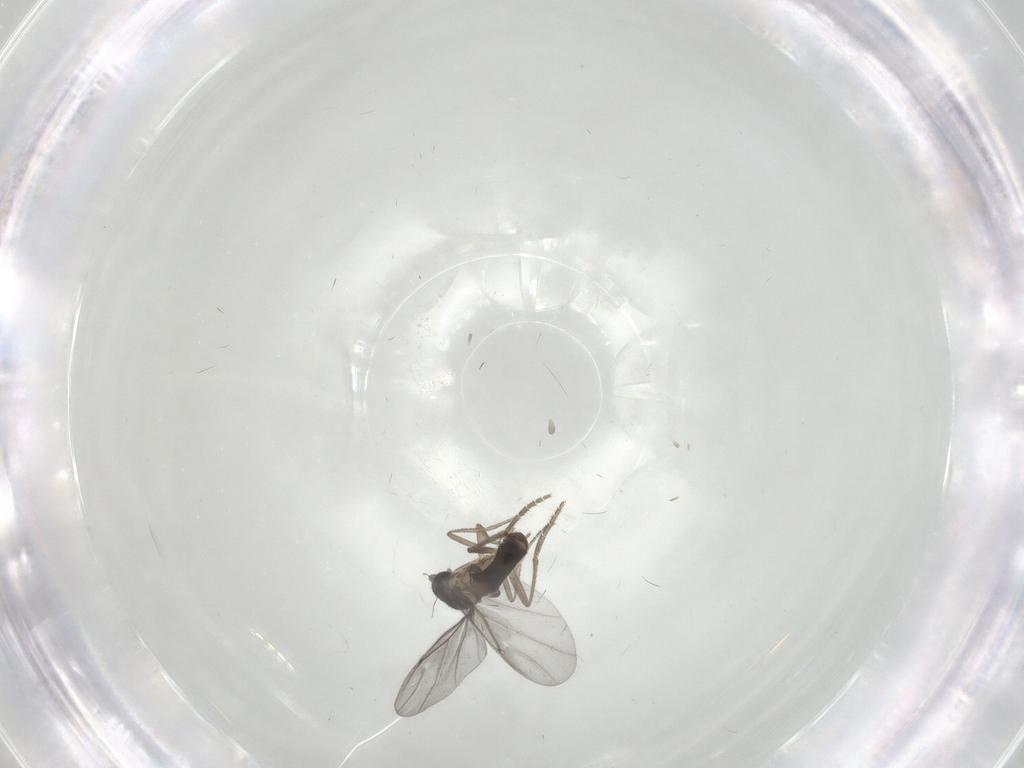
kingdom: Animalia
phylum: Arthropoda
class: Insecta
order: Diptera
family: Phoridae
